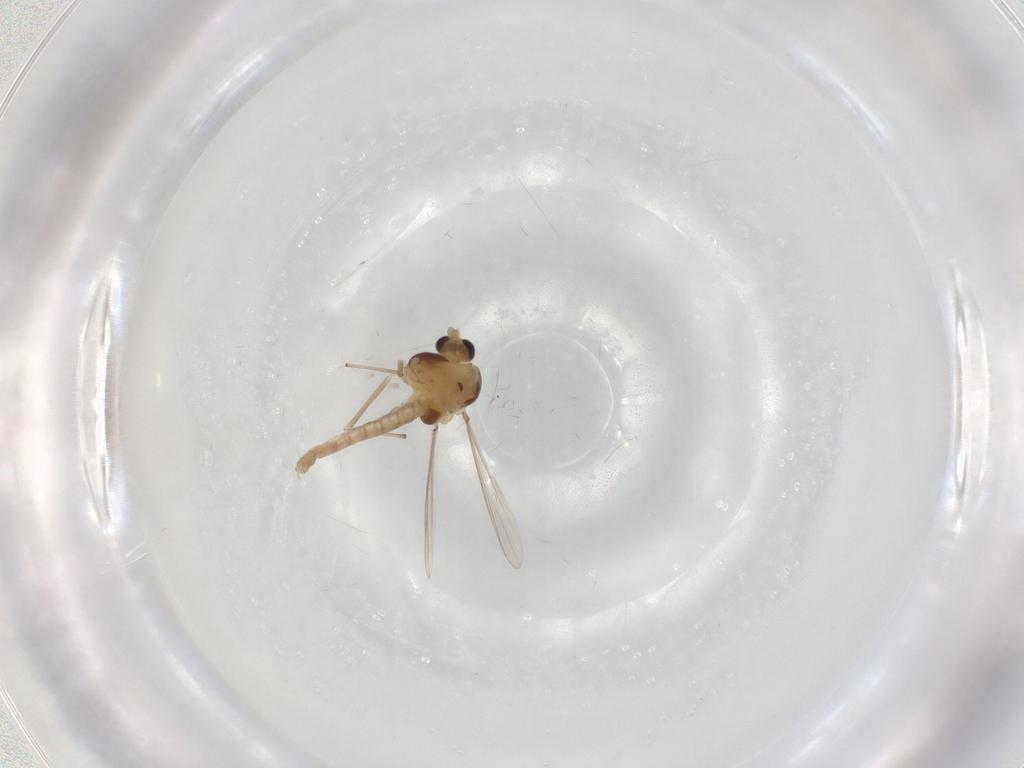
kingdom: Animalia
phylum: Arthropoda
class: Insecta
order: Diptera
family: Chironomidae
